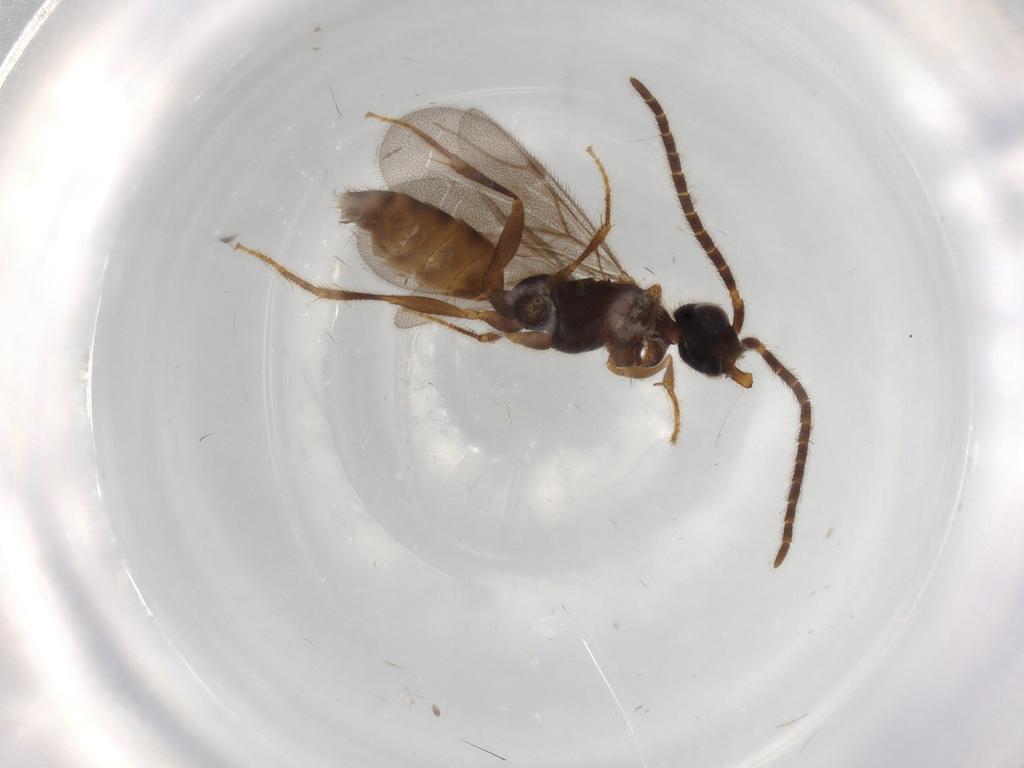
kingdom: Animalia
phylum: Arthropoda
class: Insecta
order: Hymenoptera
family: Bethylidae
